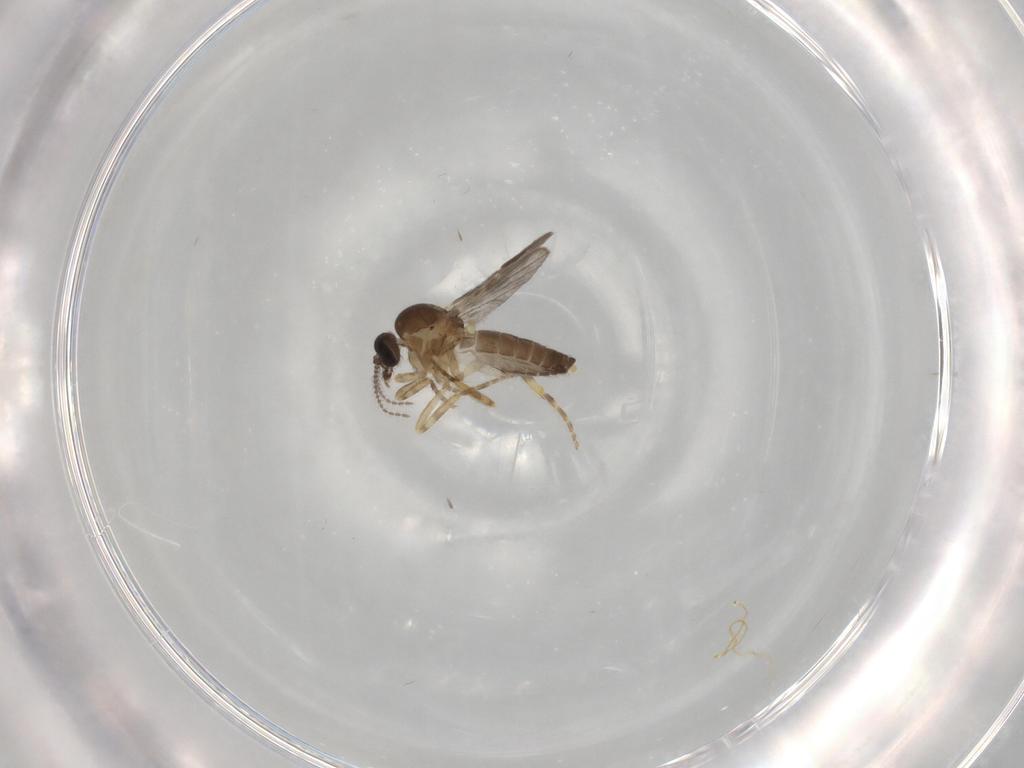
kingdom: Animalia
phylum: Arthropoda
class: Insecta
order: Diptera
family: Ceratopogonidae
